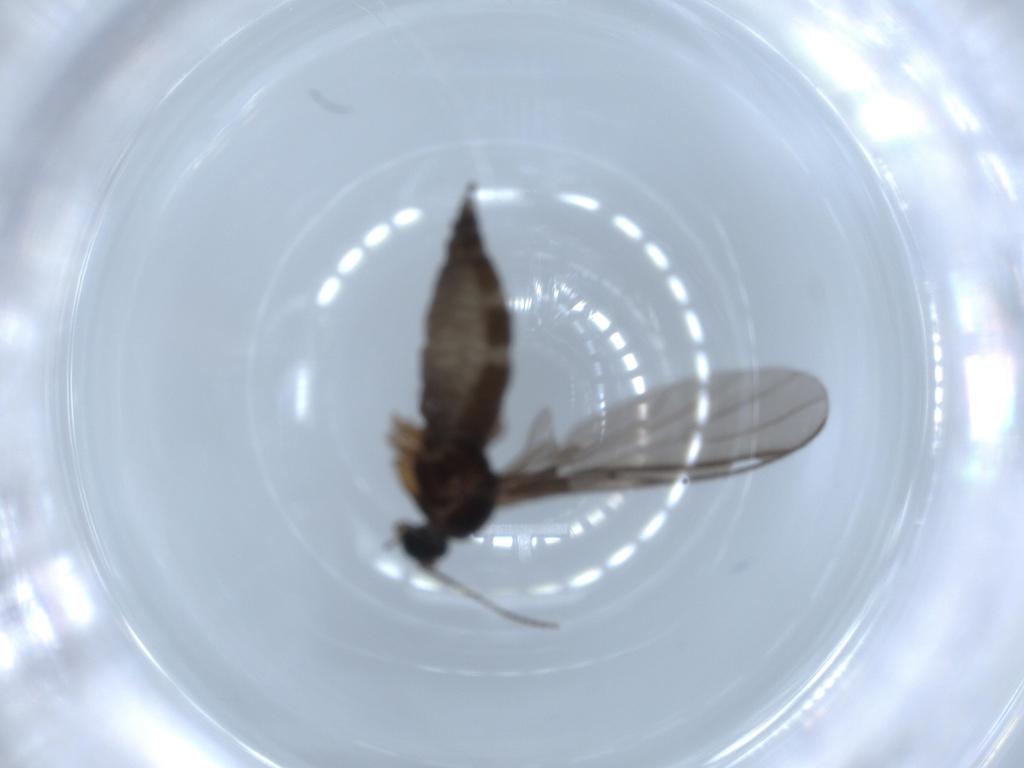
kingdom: Animalia
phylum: Arthropoda
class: Insecta
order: Diptera
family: Sciaridae
